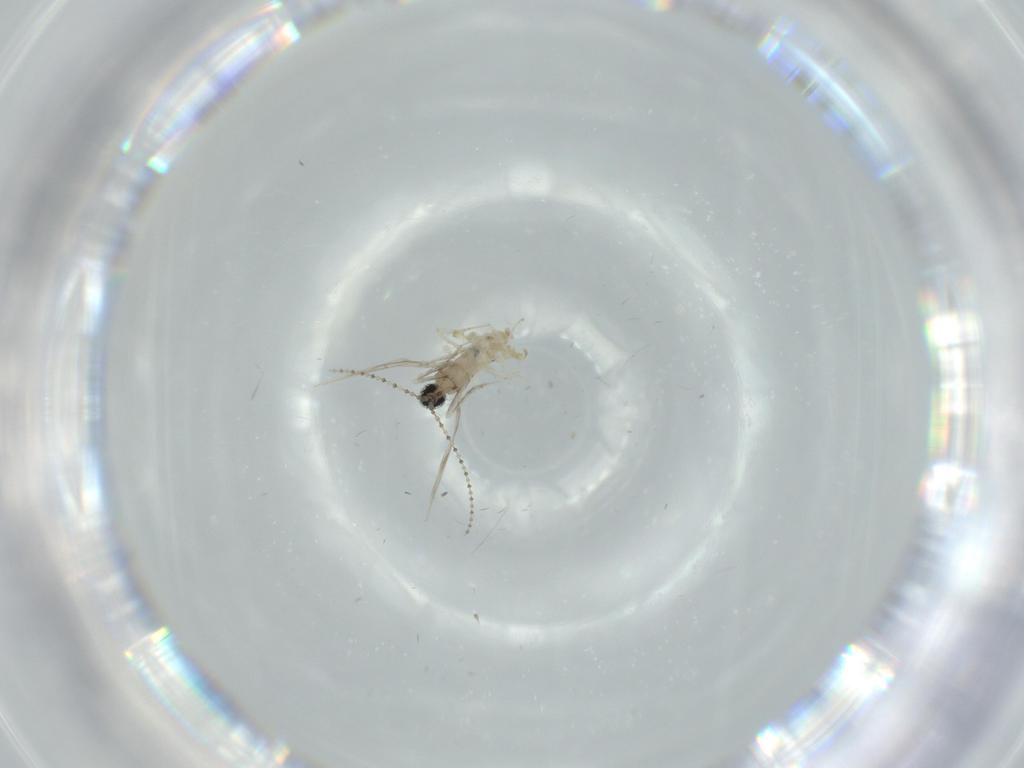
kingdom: Animalia
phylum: Arthropoda
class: Insecta
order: Diptera
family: Cecidomyiidae
